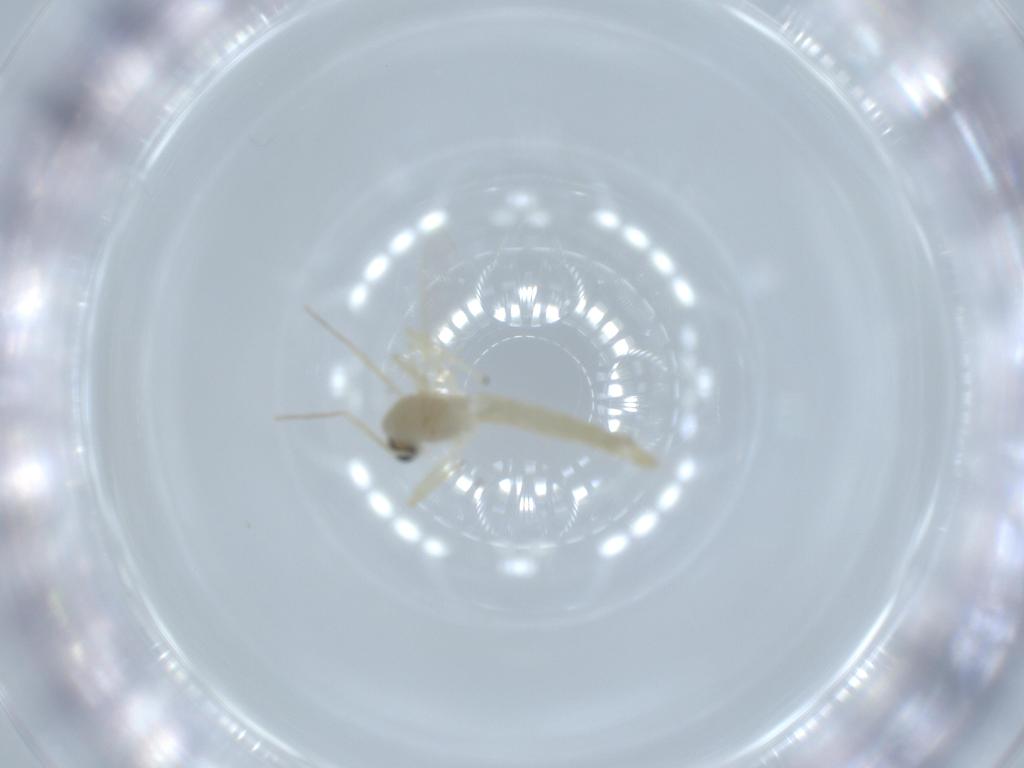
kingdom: Animalia
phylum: Arthropoda
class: Insecta
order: Diptera
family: Chironomidae
